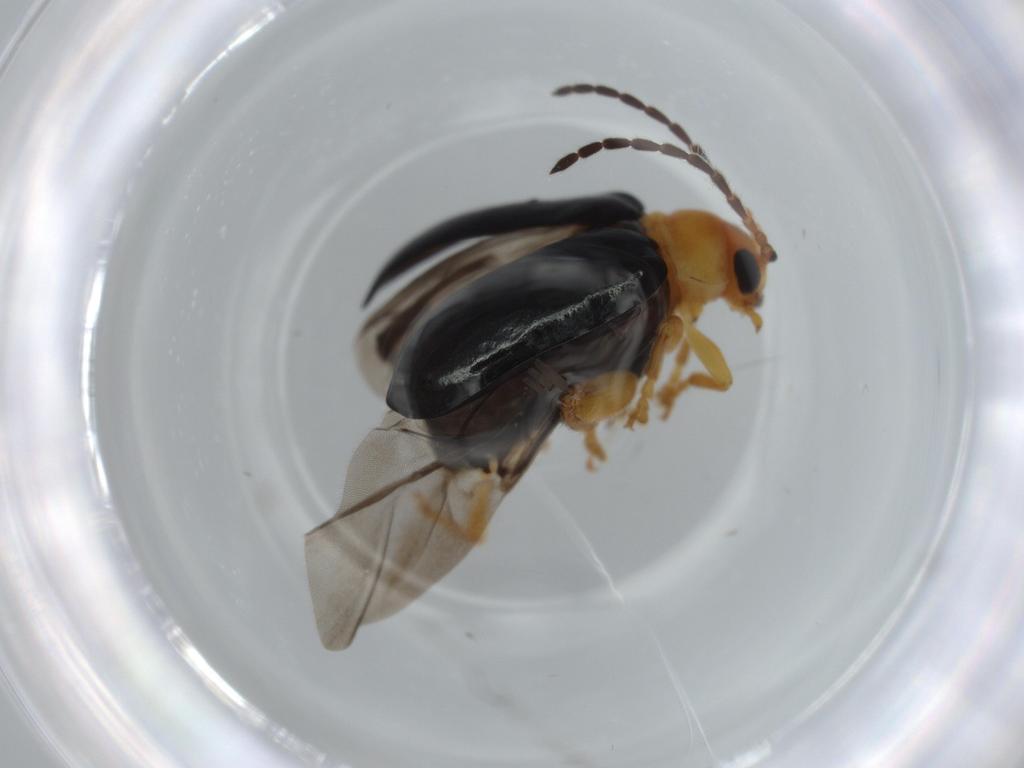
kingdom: Animalia
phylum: Arthropoda
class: Insecta
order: Coleoptera
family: Chrysomelidae
